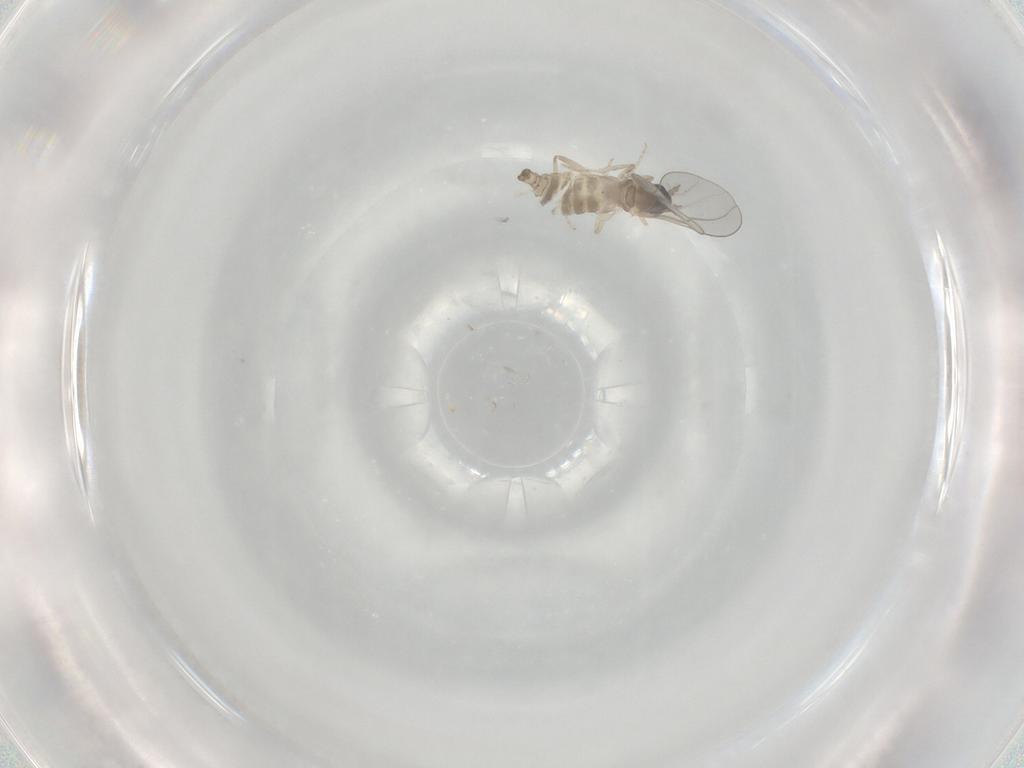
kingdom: Animalia
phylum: Arthropoda
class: Insecta
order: Diptera
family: Cecidomyiidae
